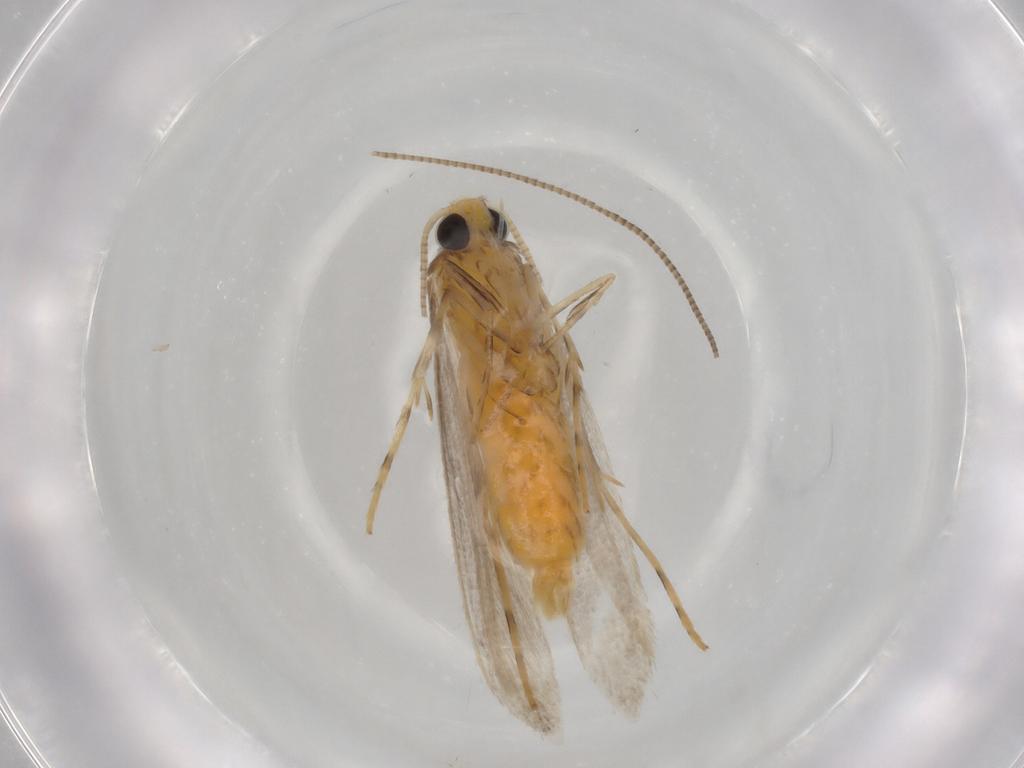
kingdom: Animalia
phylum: Arthropoda
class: Insecta
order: Lepidoptera
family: Gracillariidae
